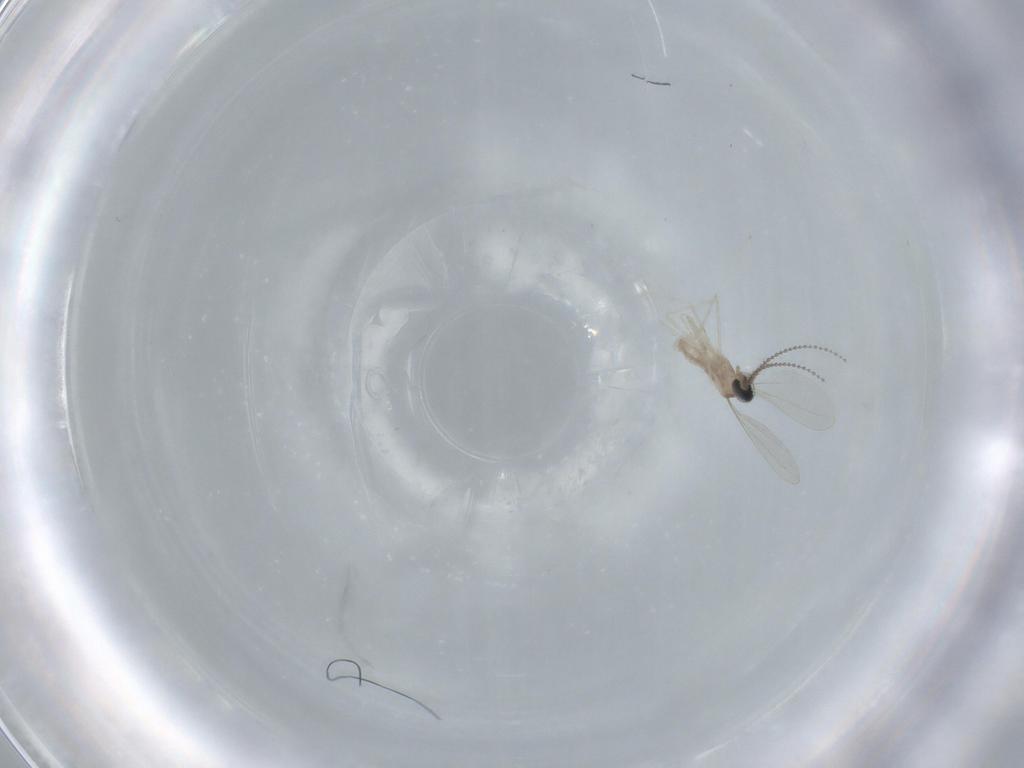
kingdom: Animalia
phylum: Arthropoda
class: Insecta
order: Diptera
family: Cecidomyiidae
